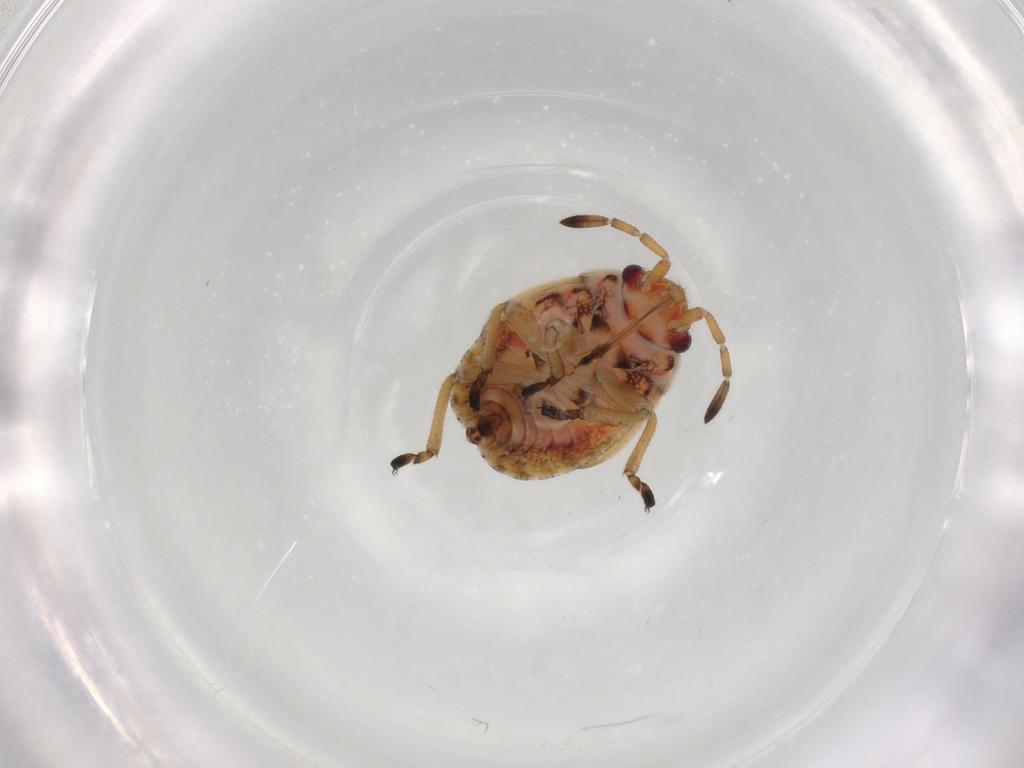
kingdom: Animalia
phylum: Arthropoda
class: Insecta
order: Hemiptera
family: Lygaeidae
